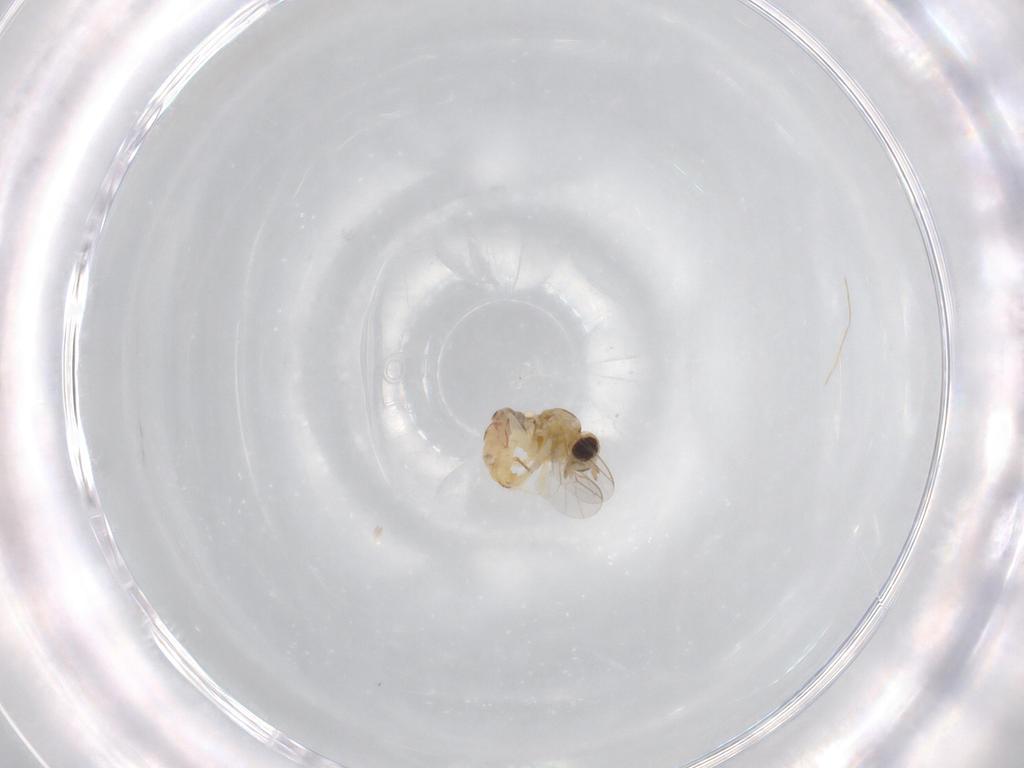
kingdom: Animalia
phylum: Arthropoda
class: Insecta
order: Diptera
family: Mythicomyiidae
